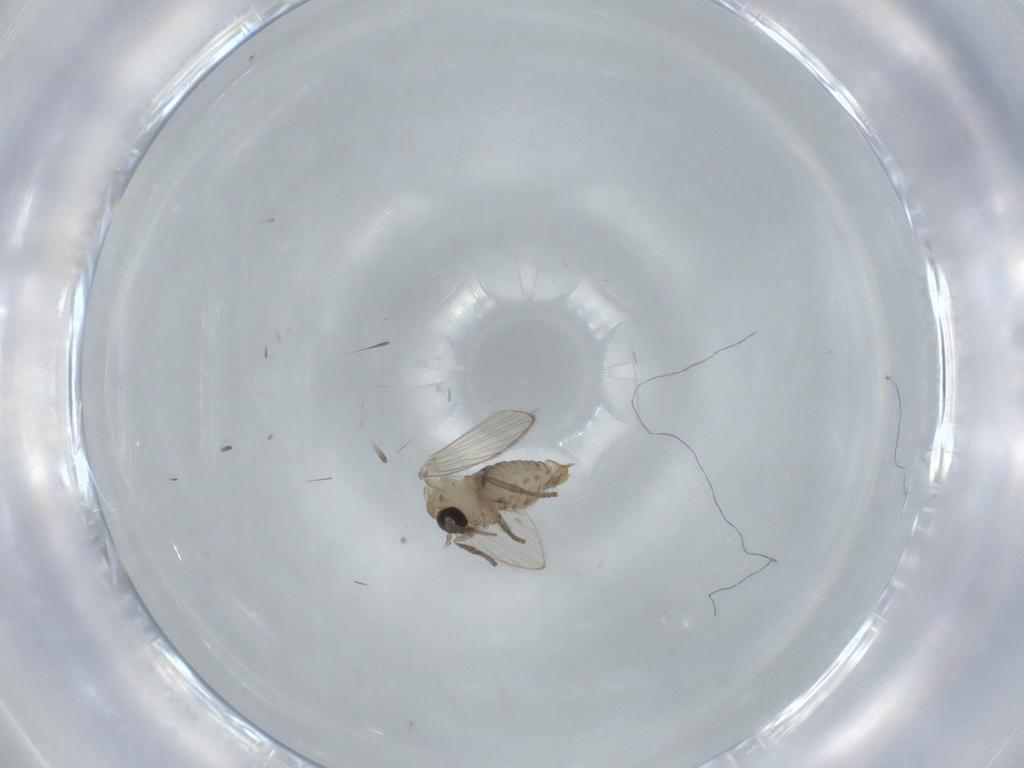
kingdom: Animalia
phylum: Arthropoda
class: Insecta
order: Diptera
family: Psychodidae
